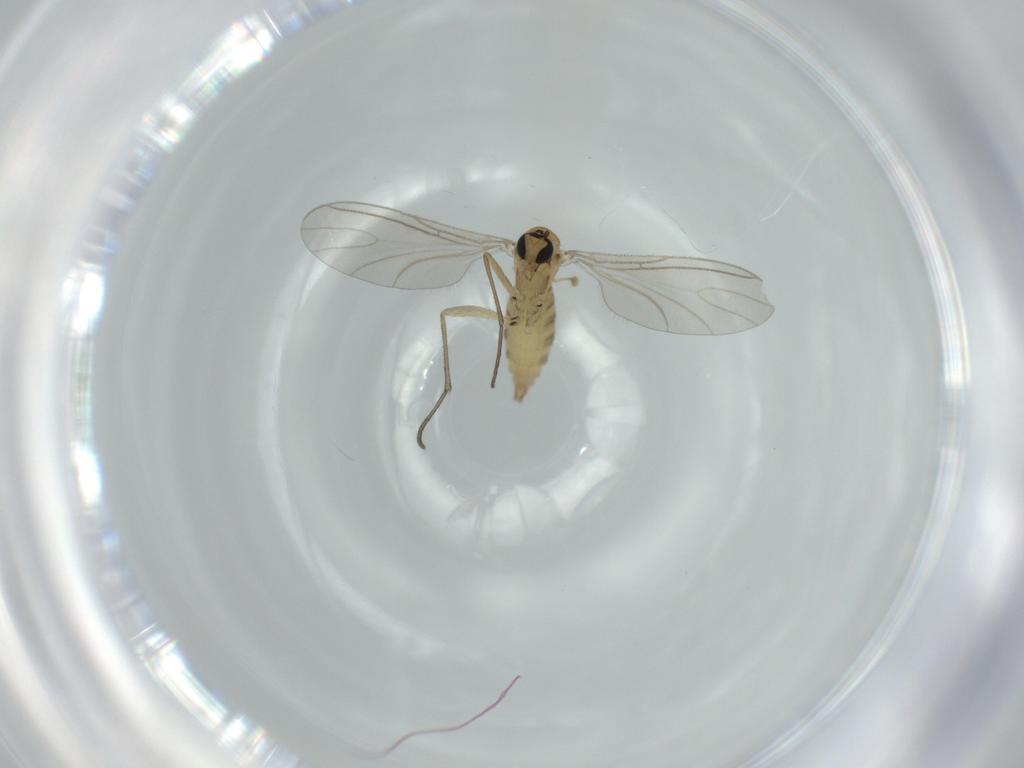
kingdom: Animalia
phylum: Arthropoda
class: Insecta
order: Diptera
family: Sciaridae
